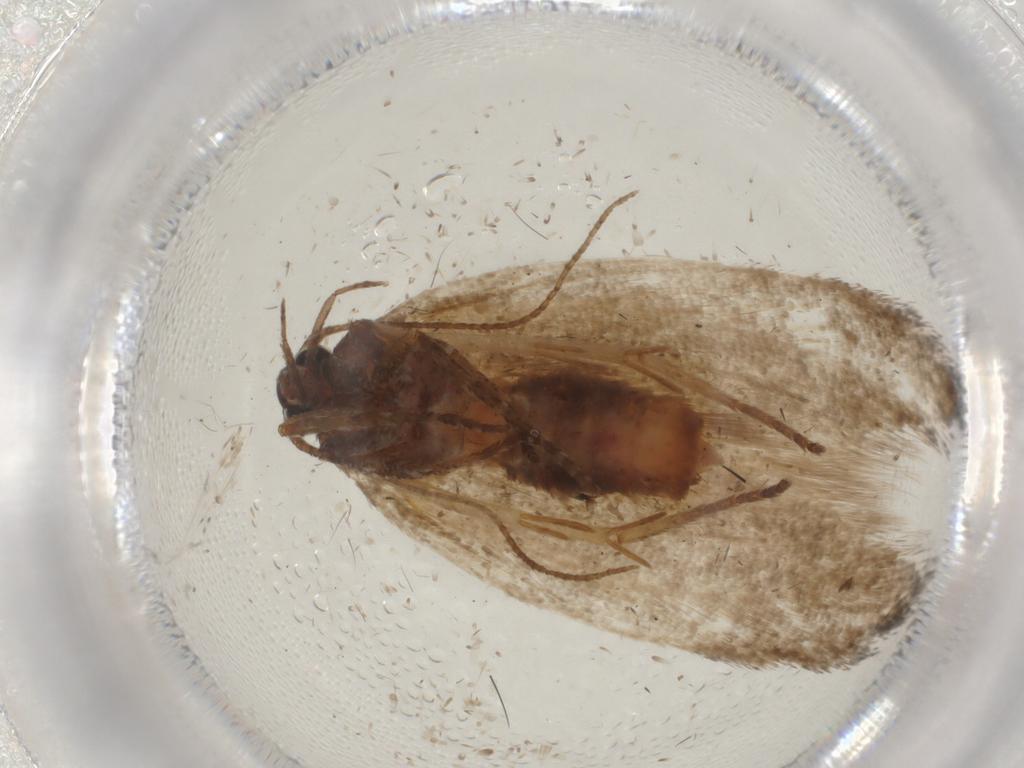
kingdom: Animalia
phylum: Arthropoda
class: Insecta
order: Lepidoptera
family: Cosmopterigidae
